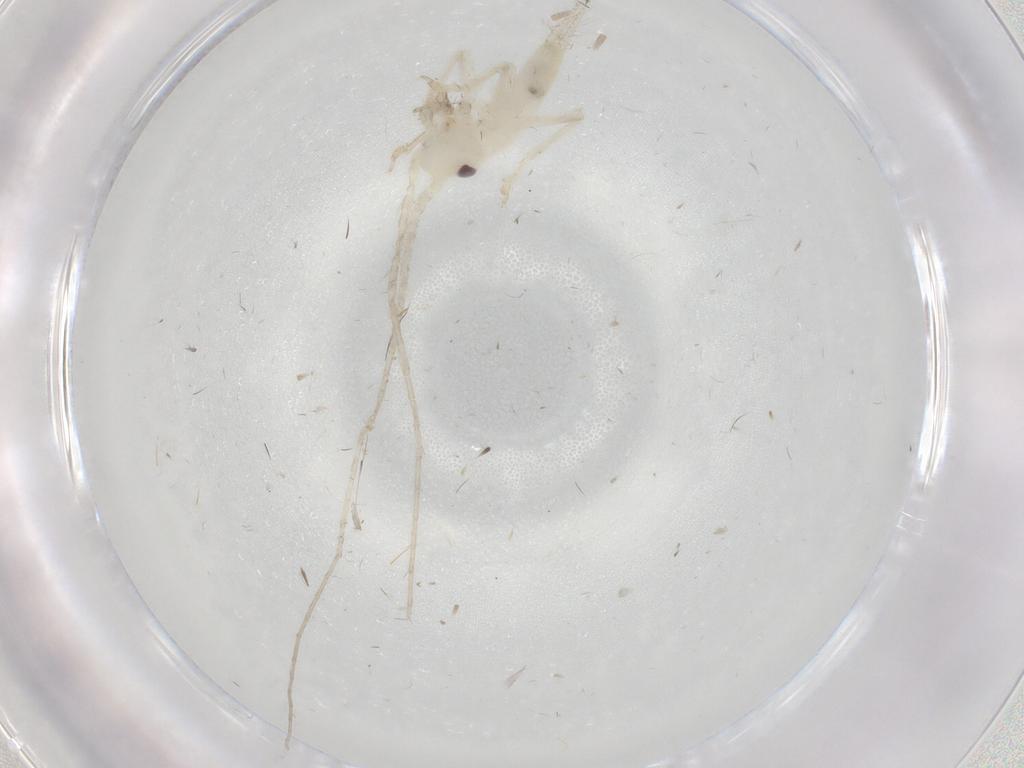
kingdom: Animalia
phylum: Arthropoda
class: Insecta
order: Orthoptera
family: Trigonidiidae
